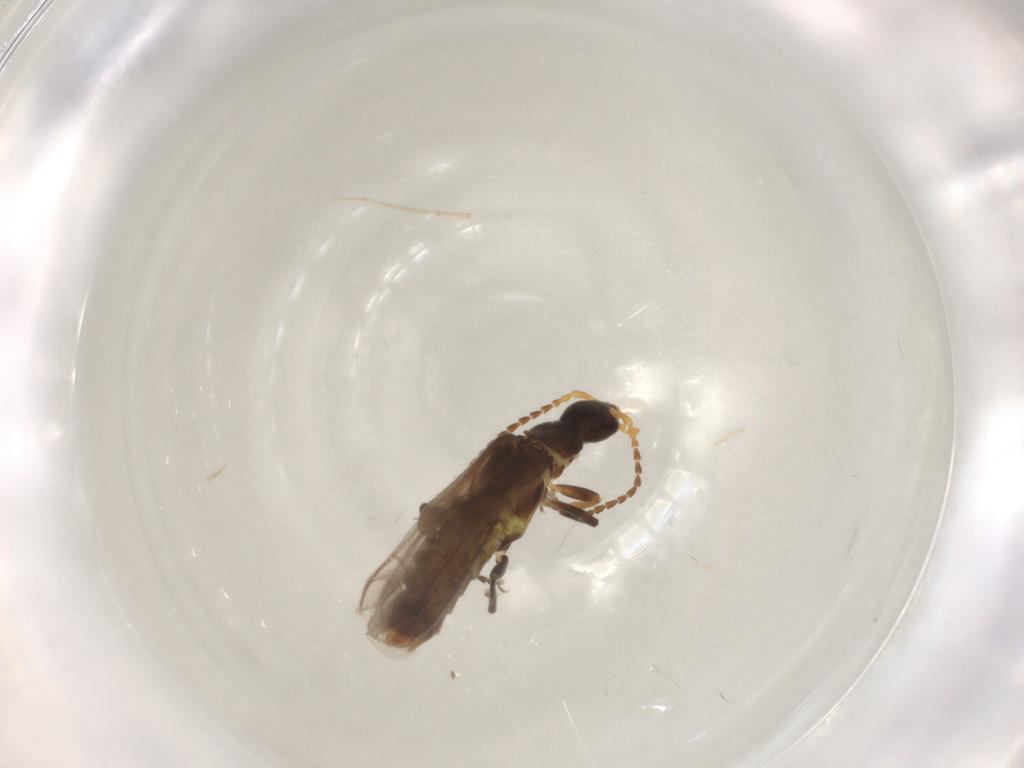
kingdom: Animalia
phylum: Arthropoda
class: Insecta
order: Coleoptera
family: Cantharidae
